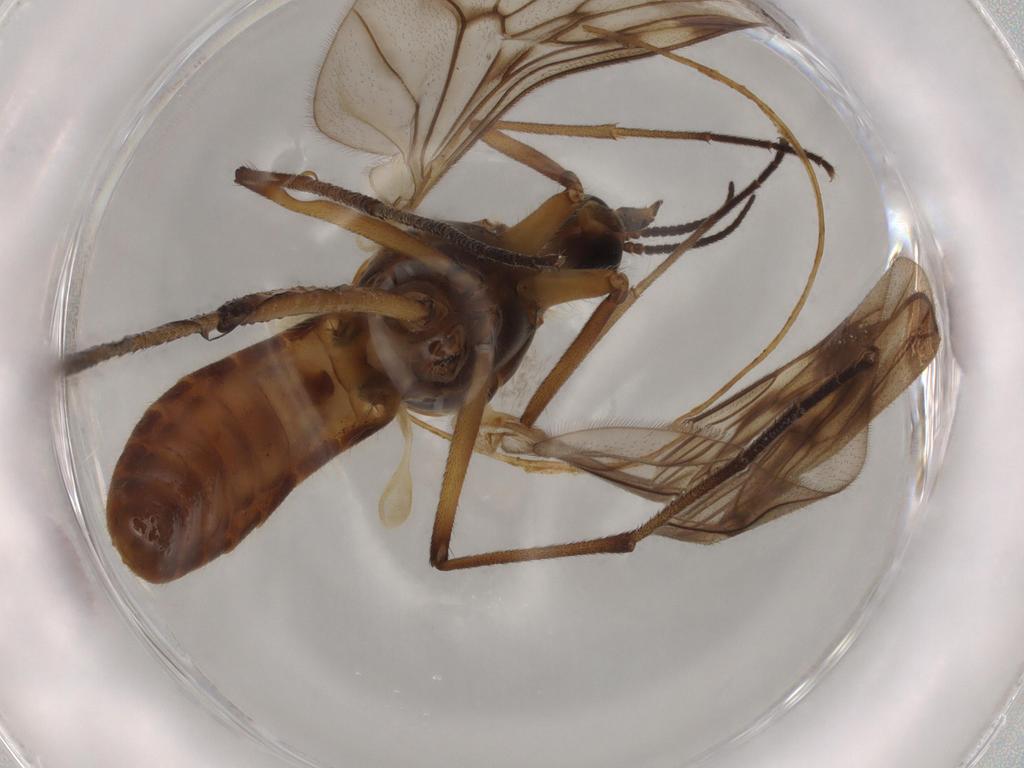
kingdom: Animalia
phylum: Arthropoda
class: Insecta
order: Diptera
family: Anisopodidae
